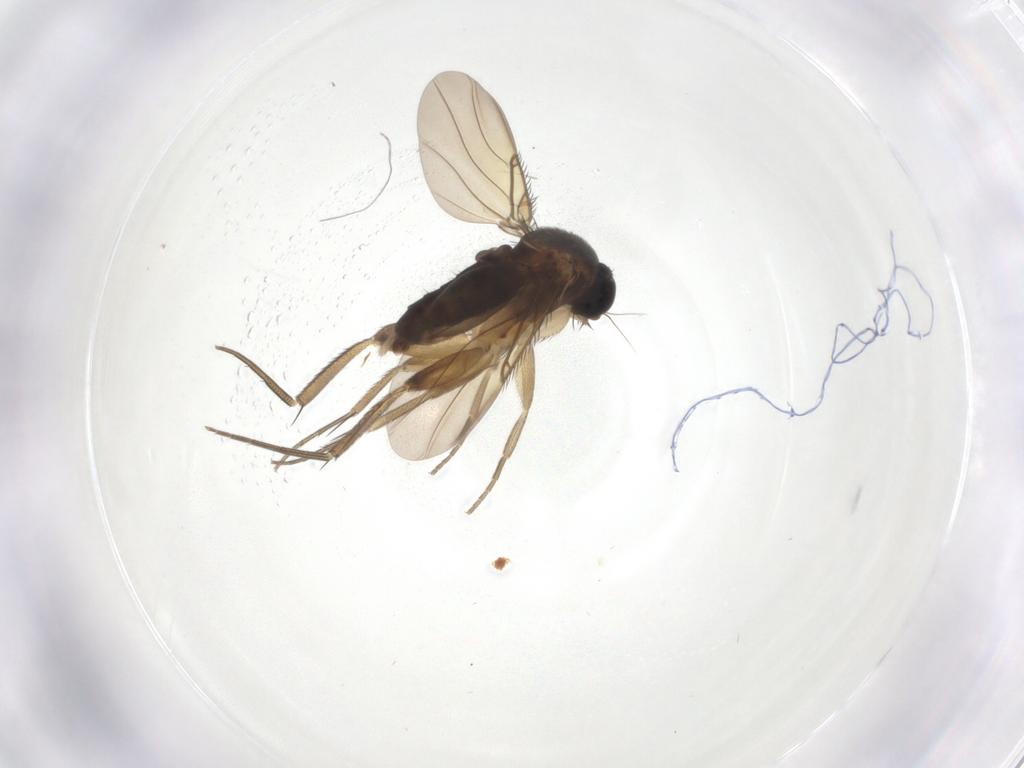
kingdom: Animalia
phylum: Arthropoda
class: Insecta
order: Diptera
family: Phoridae
